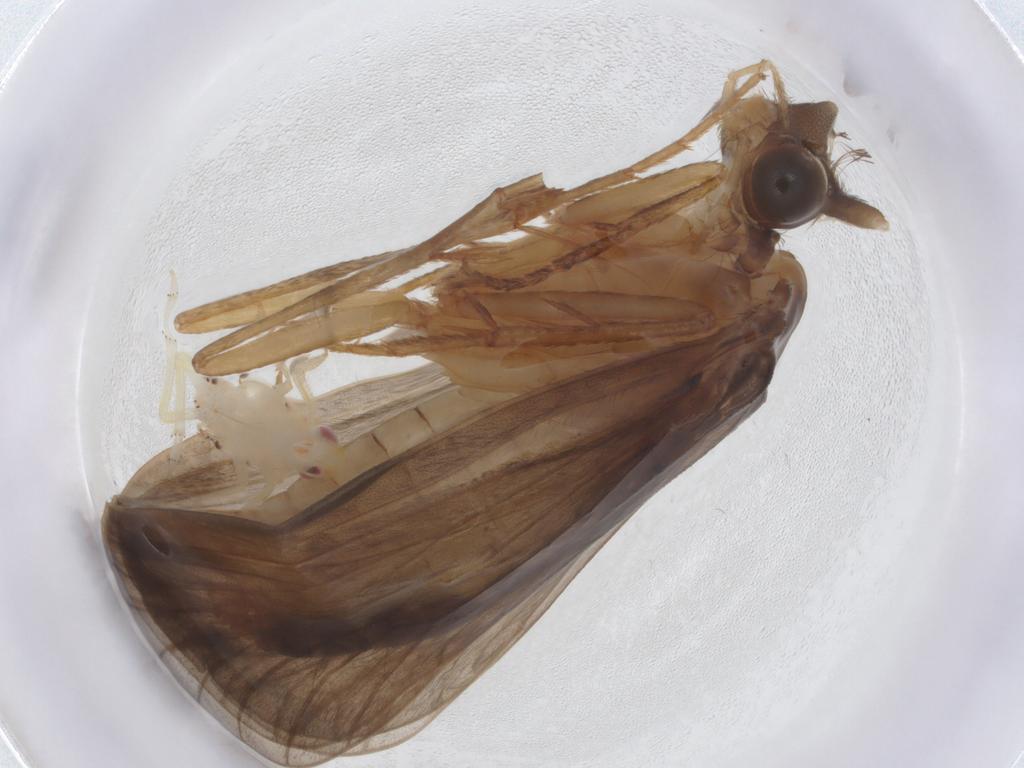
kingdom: Animalia
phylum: Arthropoda
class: Insecta
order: Trichoptera
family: Lepidostomatidae
